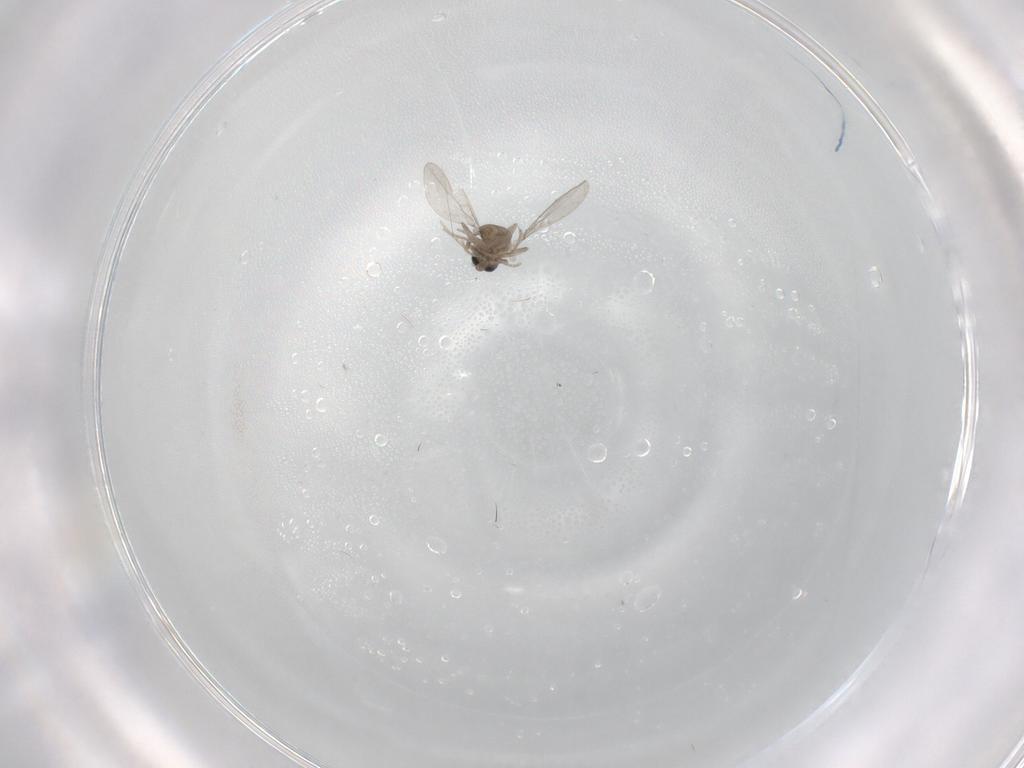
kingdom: Animalia
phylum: Arthropoda
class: Insecta
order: Diptera
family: Cecidomyiidae
